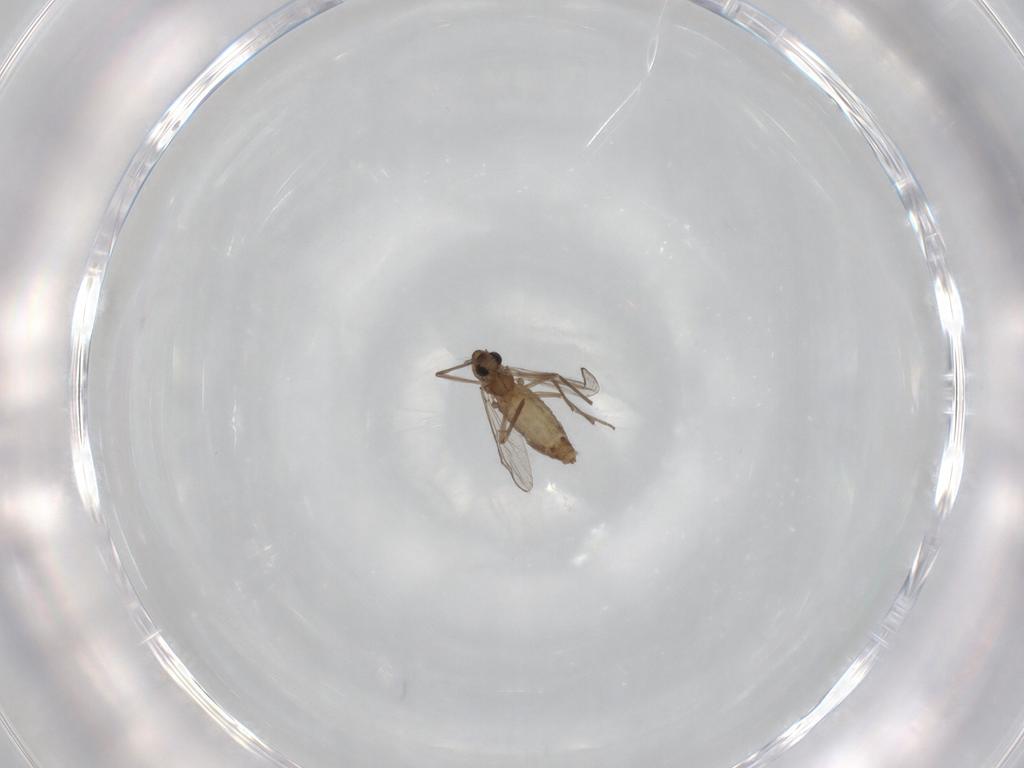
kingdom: Animalia
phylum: Arthropoda
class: Insecta
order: Diptera
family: Chironomidae
